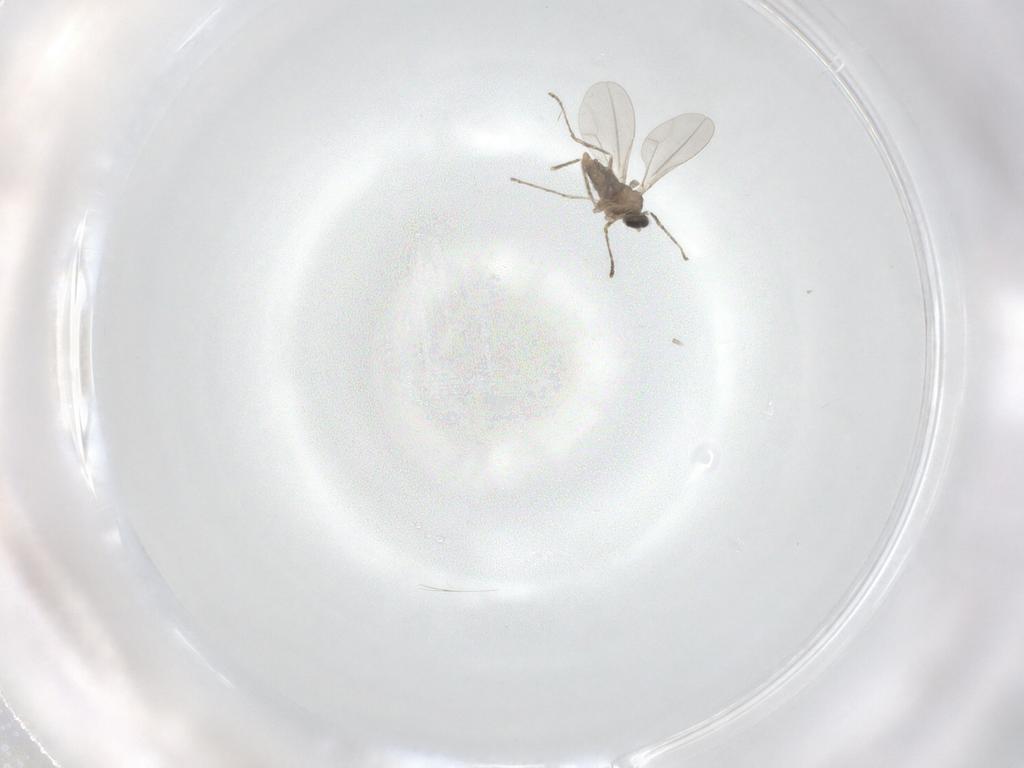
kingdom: Animalia
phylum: Arthropoda
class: Insecta
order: Diptera
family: Cecidomyiidae
